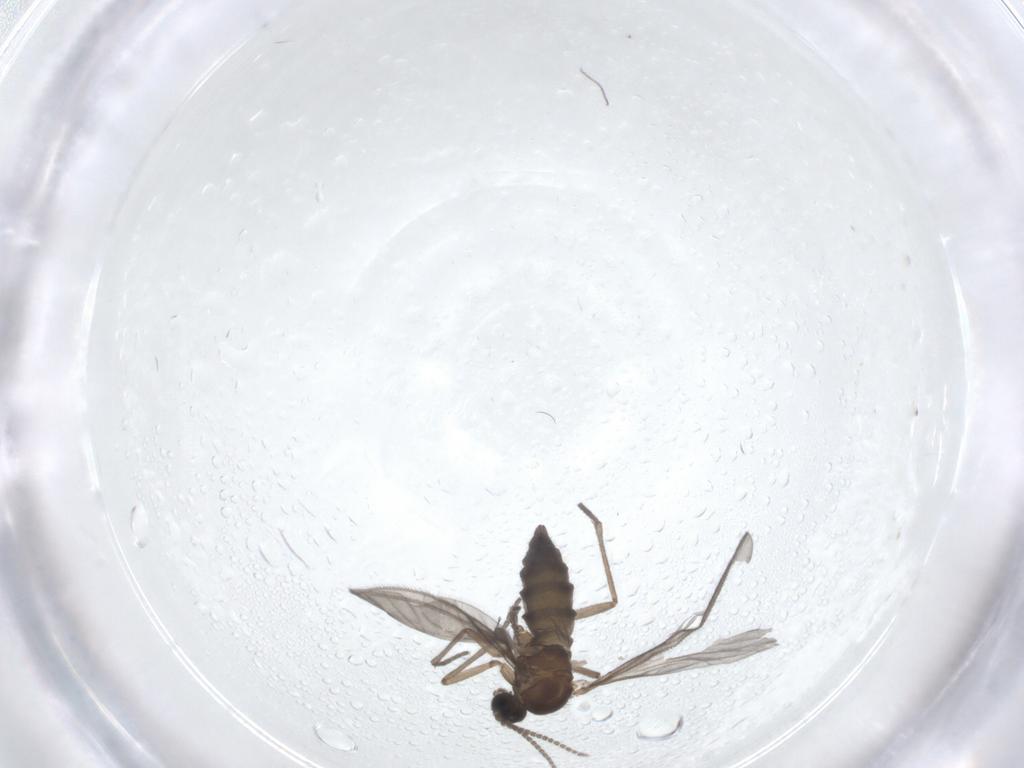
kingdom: Animalia
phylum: Arthropoda
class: Insecta
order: Diptera
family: Sciaridae
